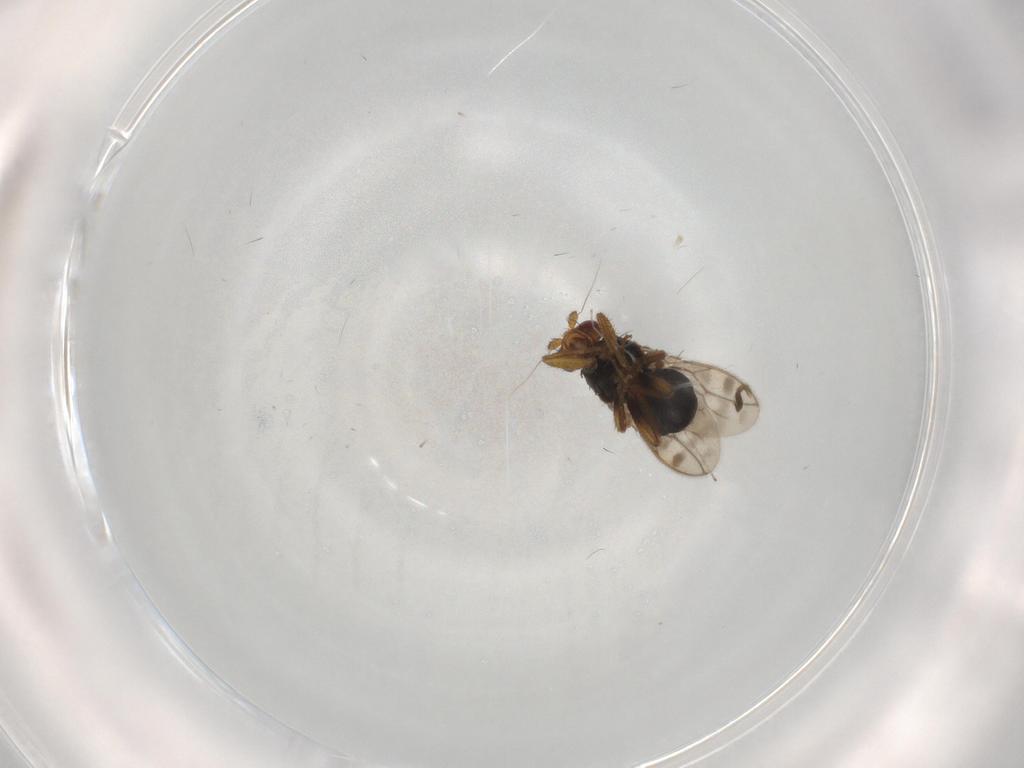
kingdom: Animalia
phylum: Arthropoda
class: Insecta
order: Diptera
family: Sphaeroceridae
